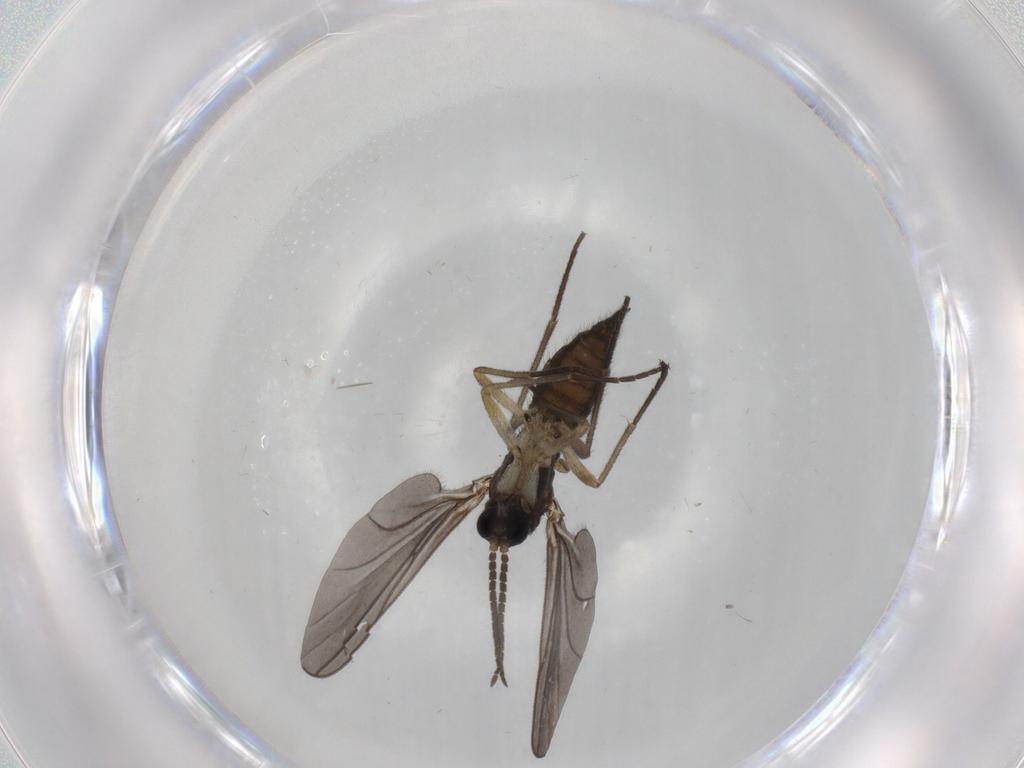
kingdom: Animalia
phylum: Arthropoda
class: Insecta
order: Diptera
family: Sciaridae
